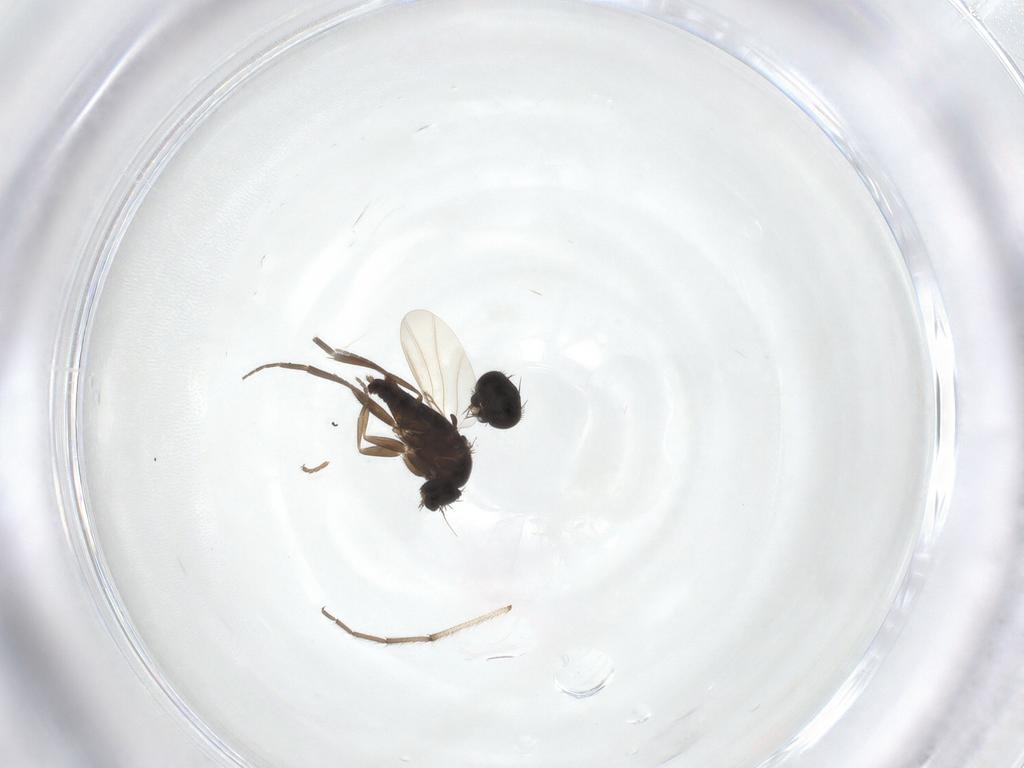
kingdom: Animalia
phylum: Arthropoda
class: Insecta
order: Diptera
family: Phoridae
